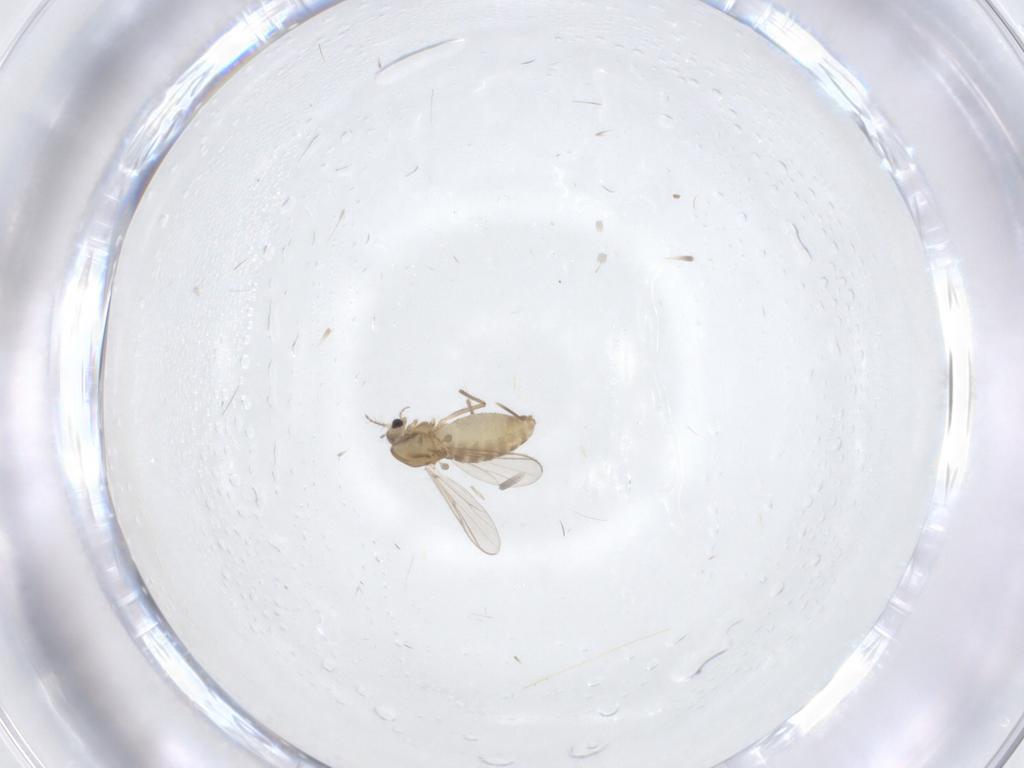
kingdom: Animalia
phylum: Arthropoda
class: Insecta
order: Diptera
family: Chironomidae
